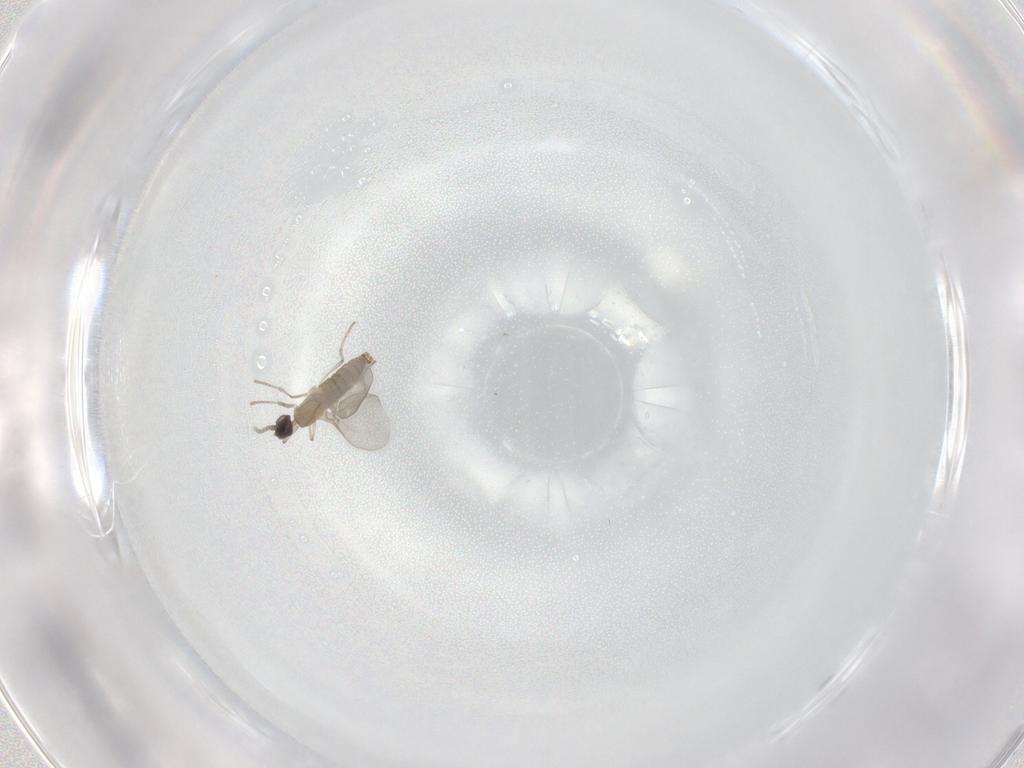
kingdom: Animalia
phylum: Arthropoda
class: Insecta
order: Diptera
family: Cecidomyiidae
